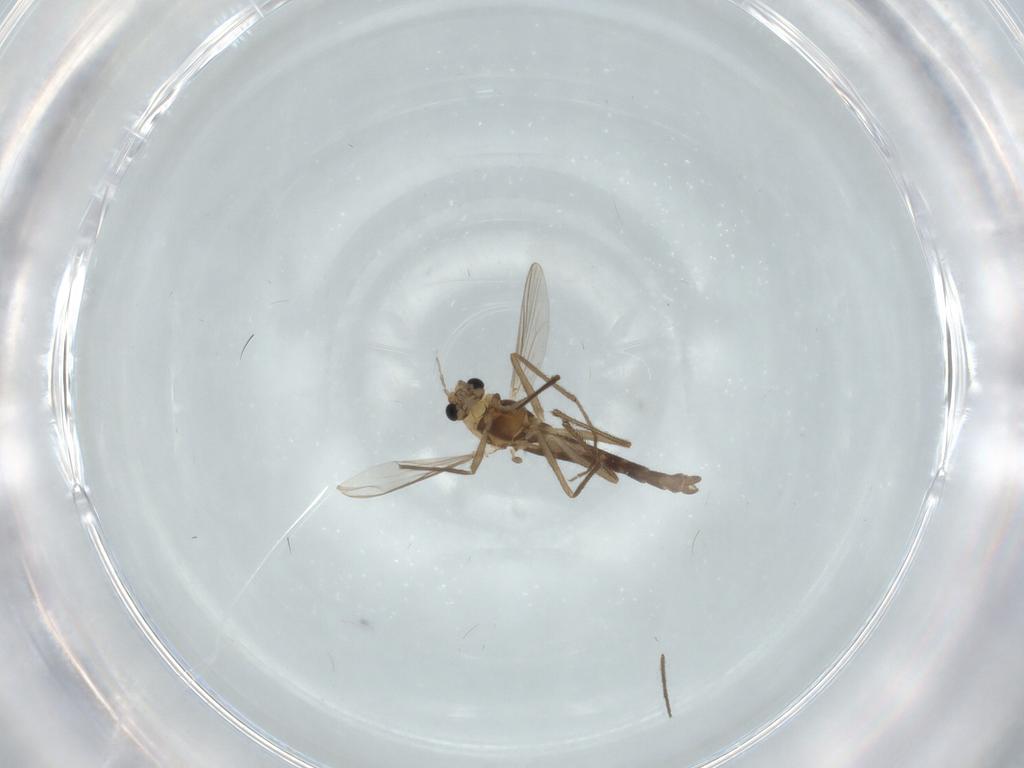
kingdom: Animalia
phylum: Arthropoda
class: Insecta
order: Diptera
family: Chironomidae
